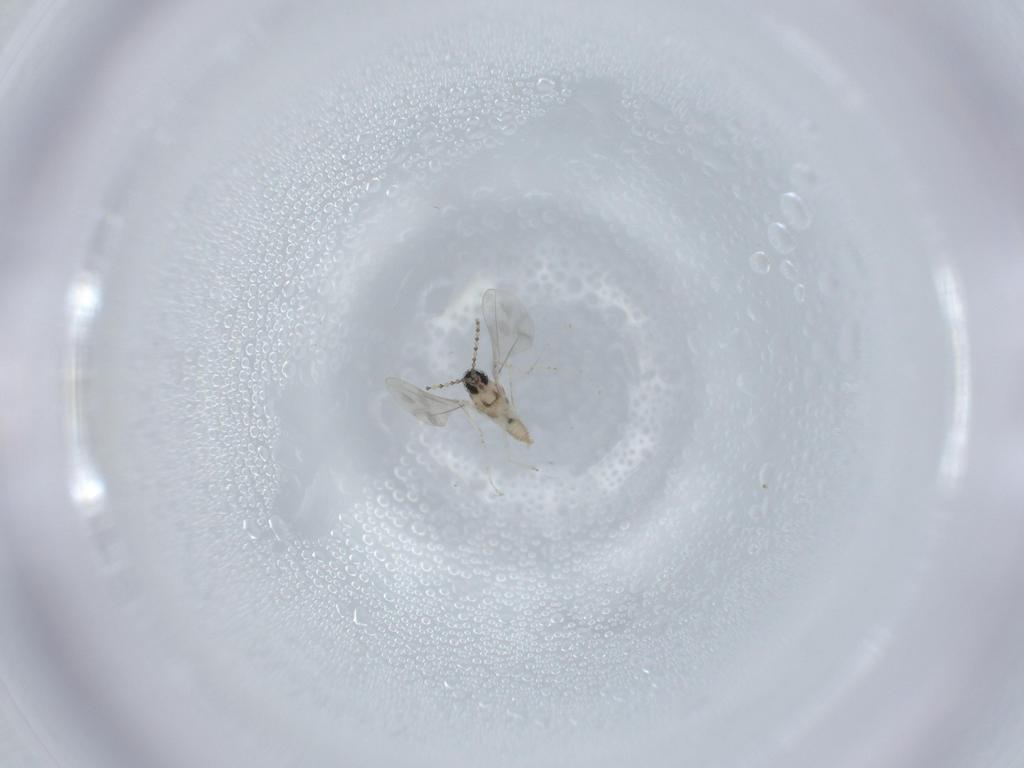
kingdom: Animalia
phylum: Arthropoda
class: Insecta
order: Diptera
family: Cecidomyiidae
